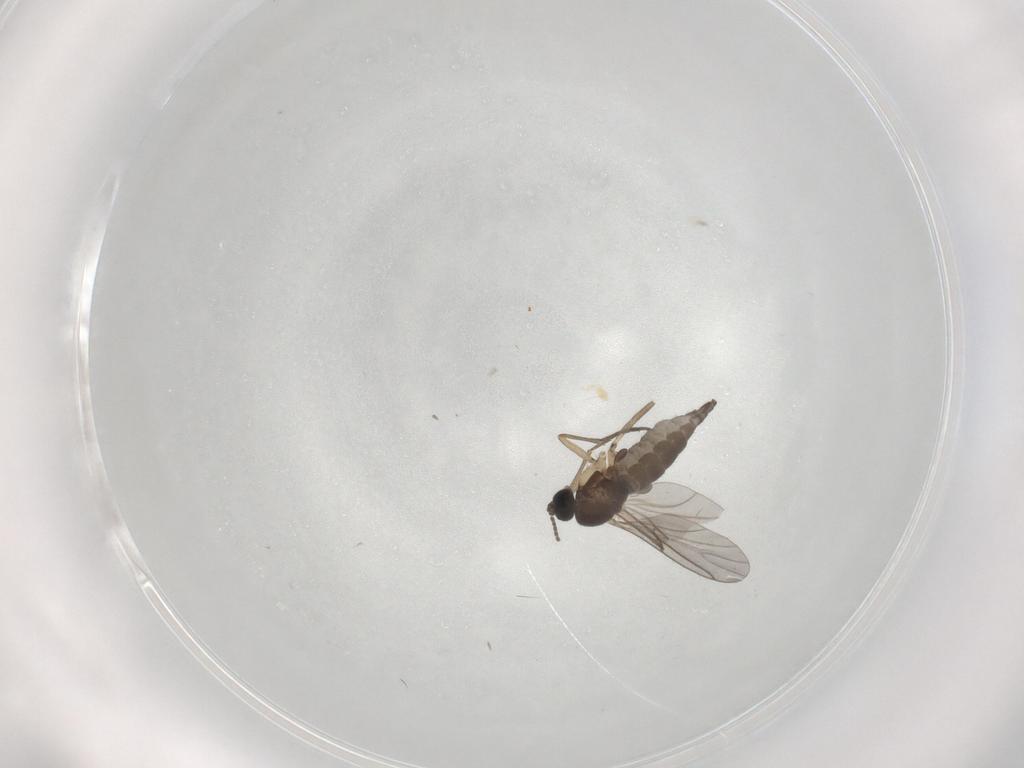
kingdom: Animalia
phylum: Arthropoda
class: Insecta
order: Diptera
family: Sciaridae
